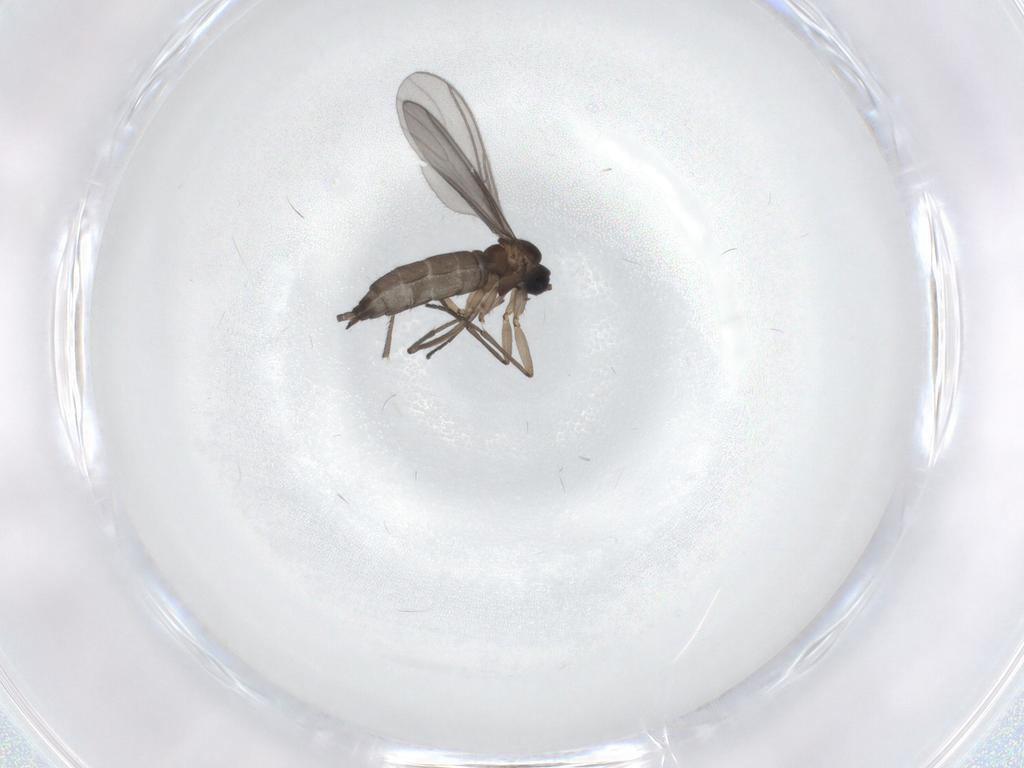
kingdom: Animalia
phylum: Arthropoda
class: Insecta
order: Diptera
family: Sciaridae
